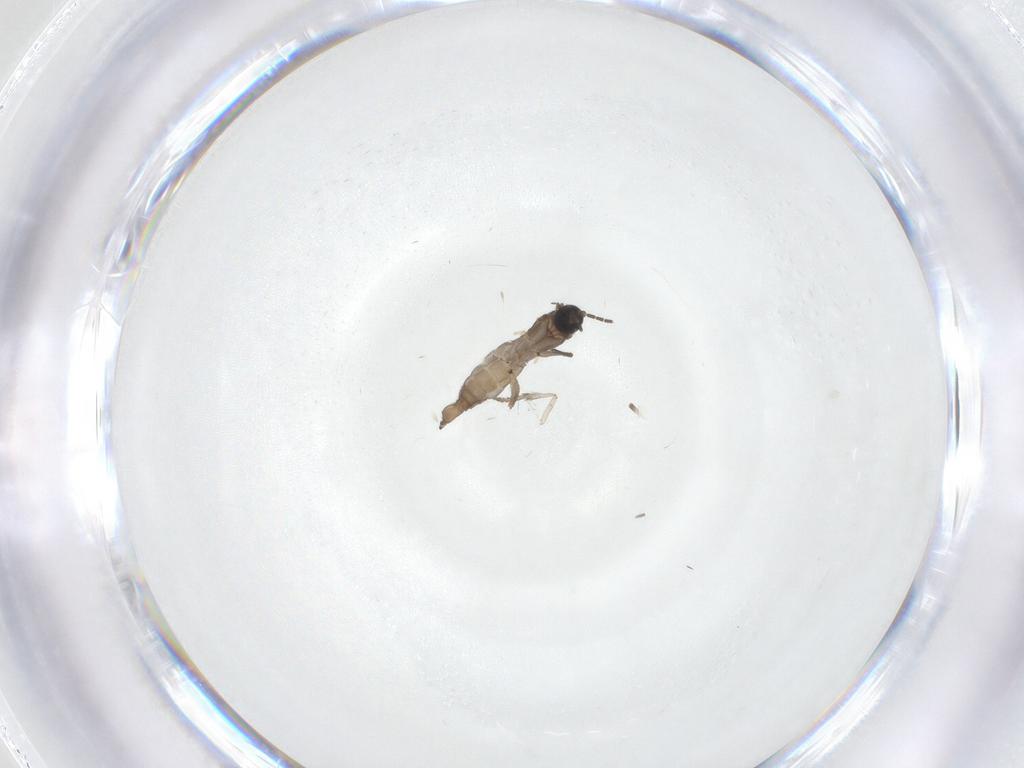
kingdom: Animalia
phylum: Arthropoda
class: Insecta
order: Diptera
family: Sciaridae
